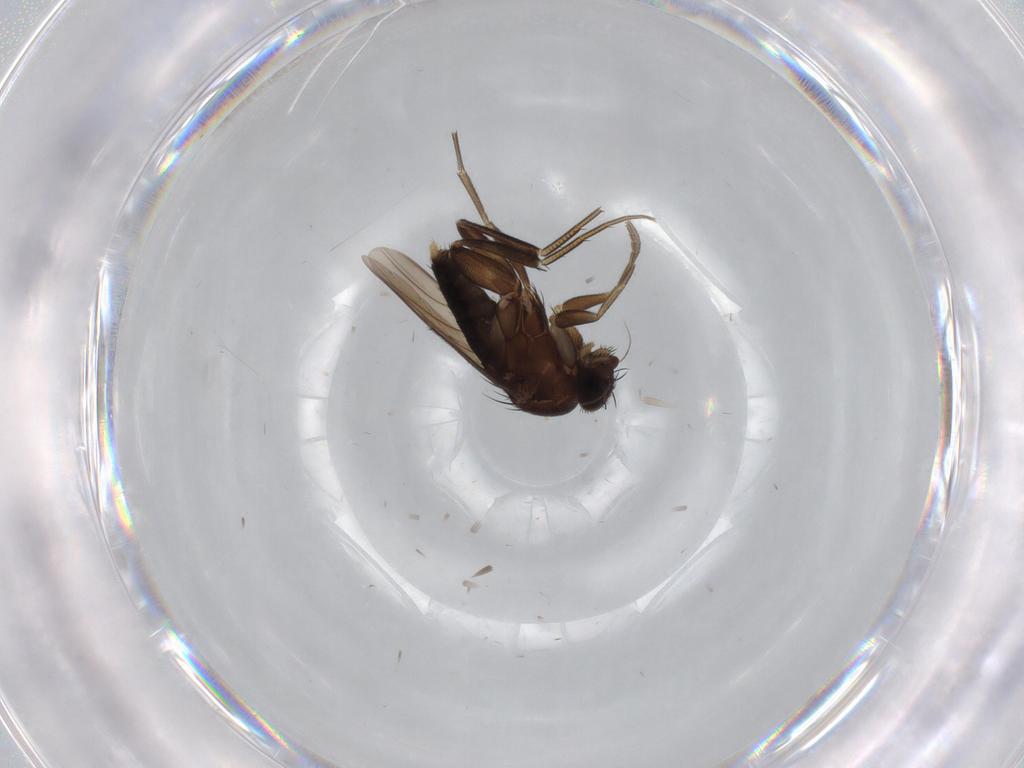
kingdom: Animalia
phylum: Arthropoda
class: Insecta
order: Diptera
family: Phoridae
